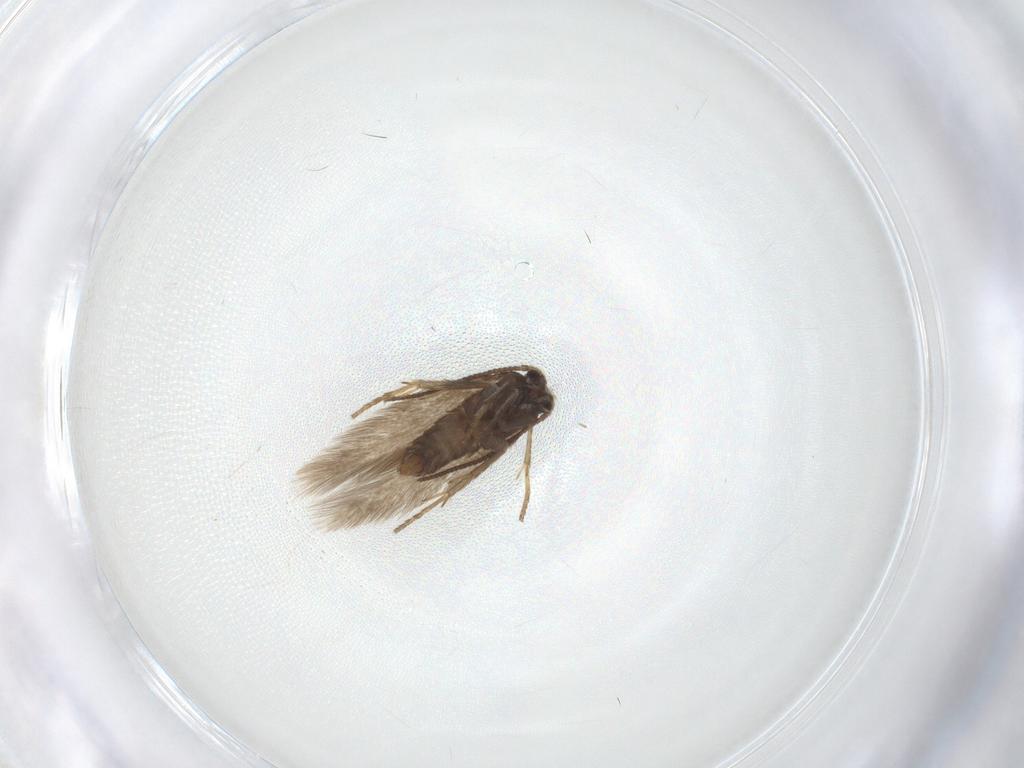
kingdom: Animalia
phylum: Arthropoda
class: Insecta
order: Lepidoptera
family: Nepticulidae
